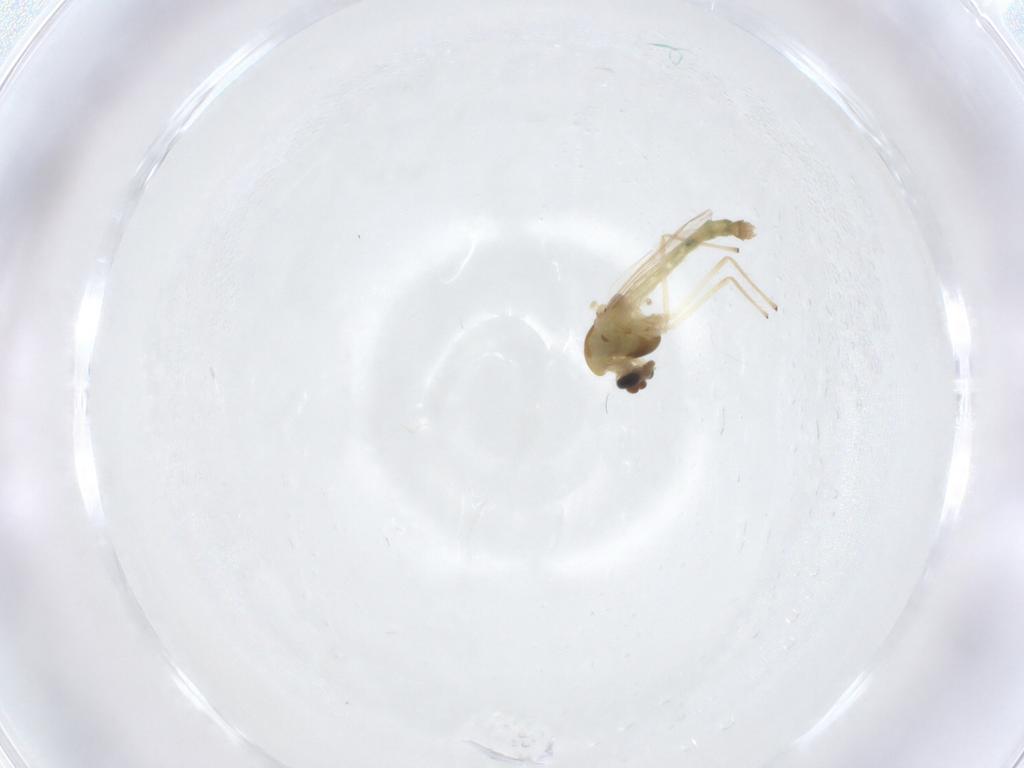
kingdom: Animalia
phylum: Arthropoda
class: Insecta
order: Diptera
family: Chironomidae
